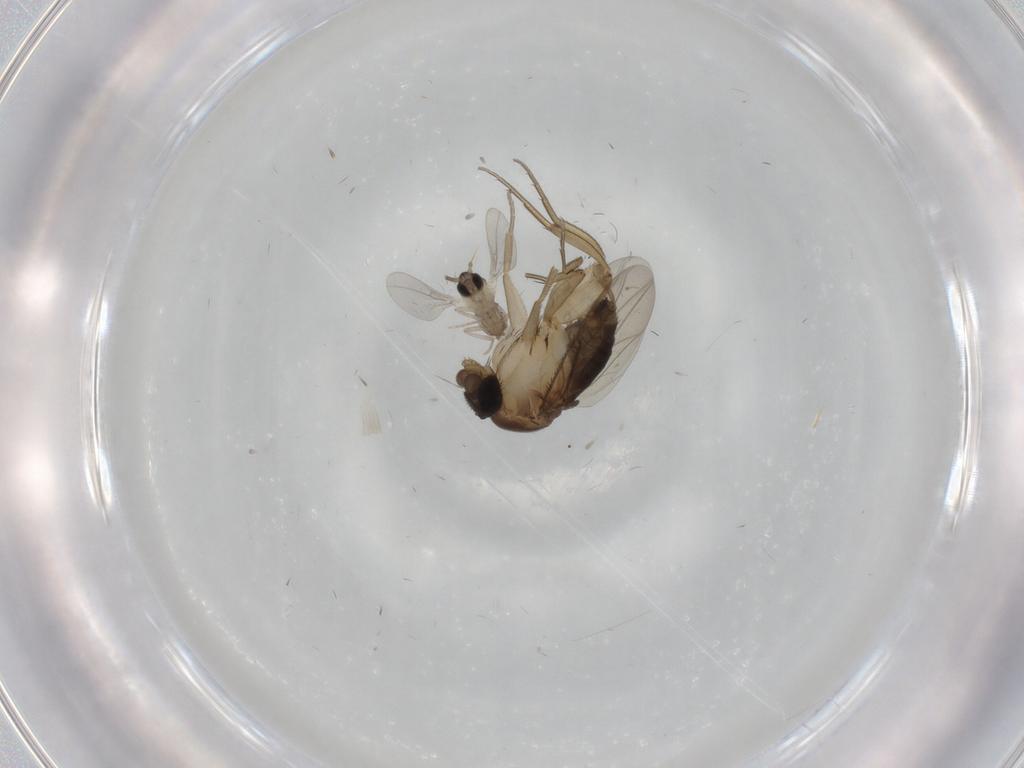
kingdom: Animalia
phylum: Arthropoda
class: Insecta
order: Diptera
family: Phoridae
